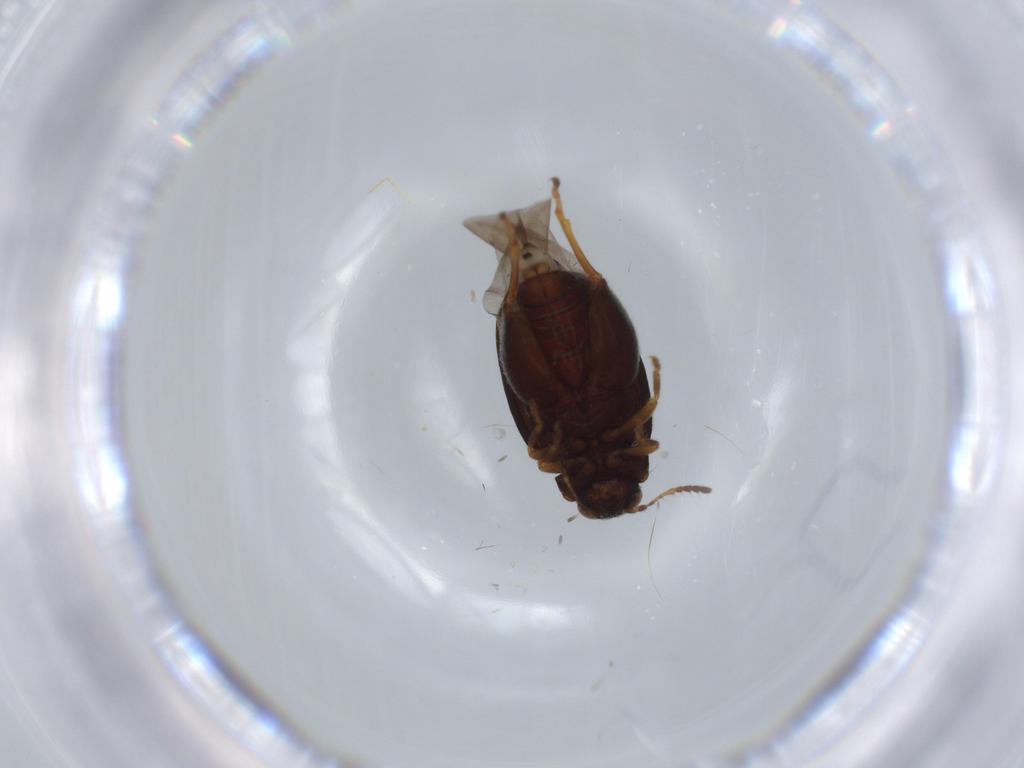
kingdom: Animalia
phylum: Arthropoda
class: Insecta
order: Coleoptera
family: Chrysomelidae
